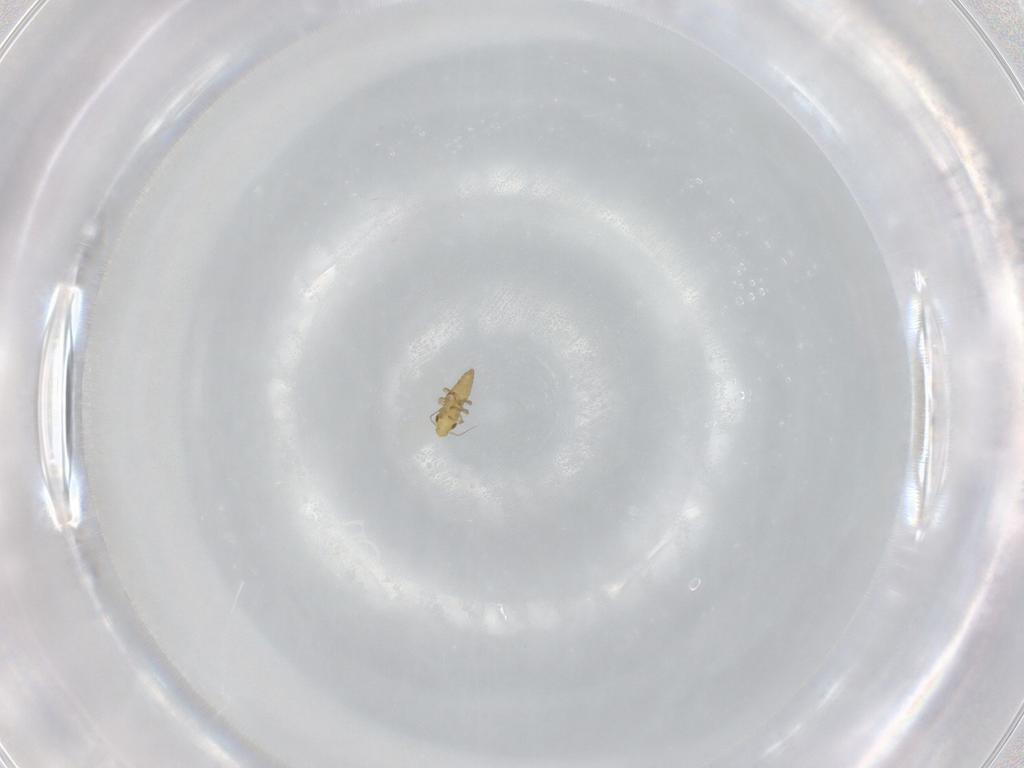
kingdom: Animalia
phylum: Arthropoda
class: Insecta
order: Hemiptera
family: Cicadellidae
